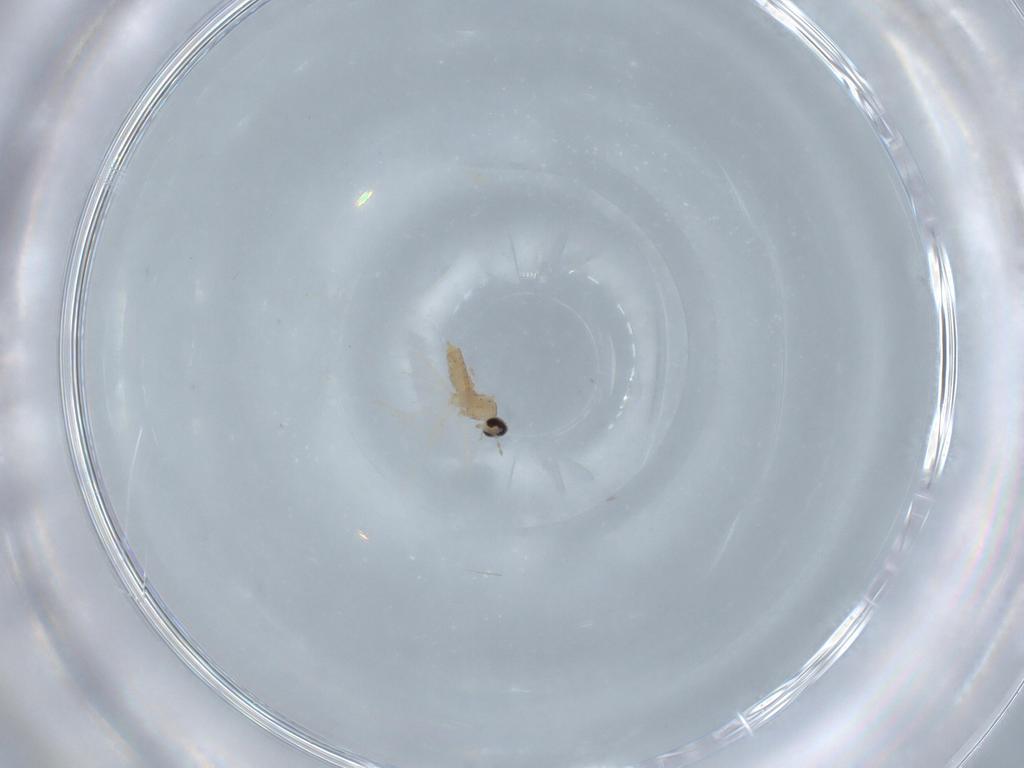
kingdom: Animalia
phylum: Arthropoda
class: Insecta
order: Diptera
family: Cecidomyiidae
